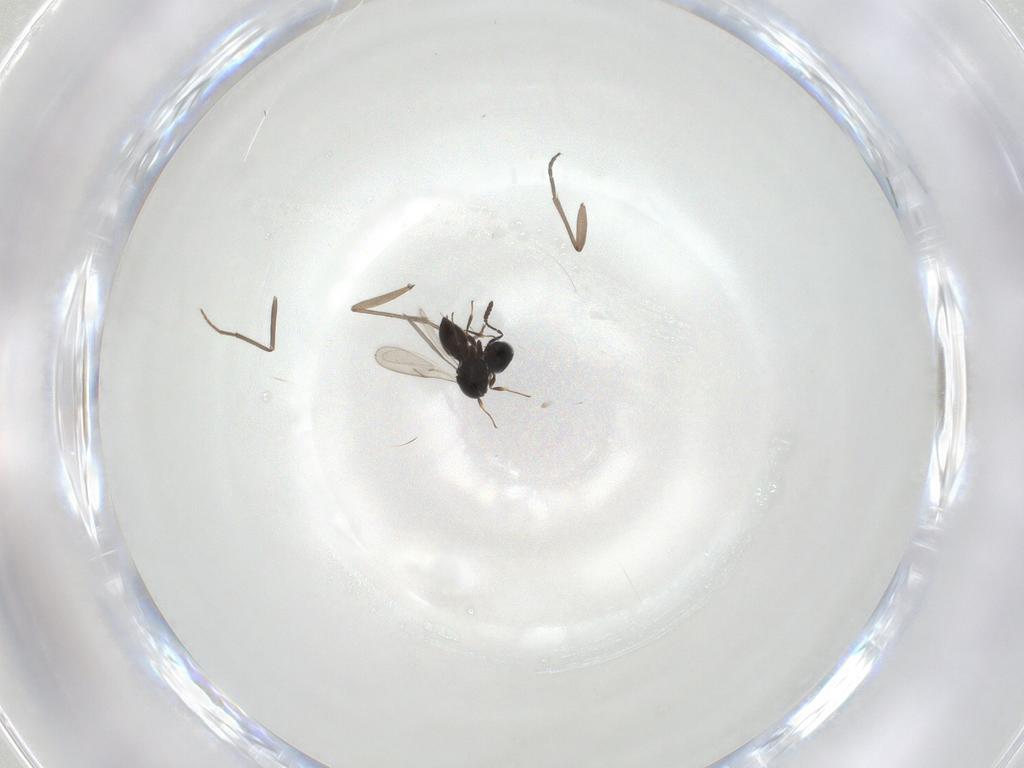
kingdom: Animalia
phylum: Arthropoda
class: Insecta
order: Hymenoptera
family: Scelionidae
